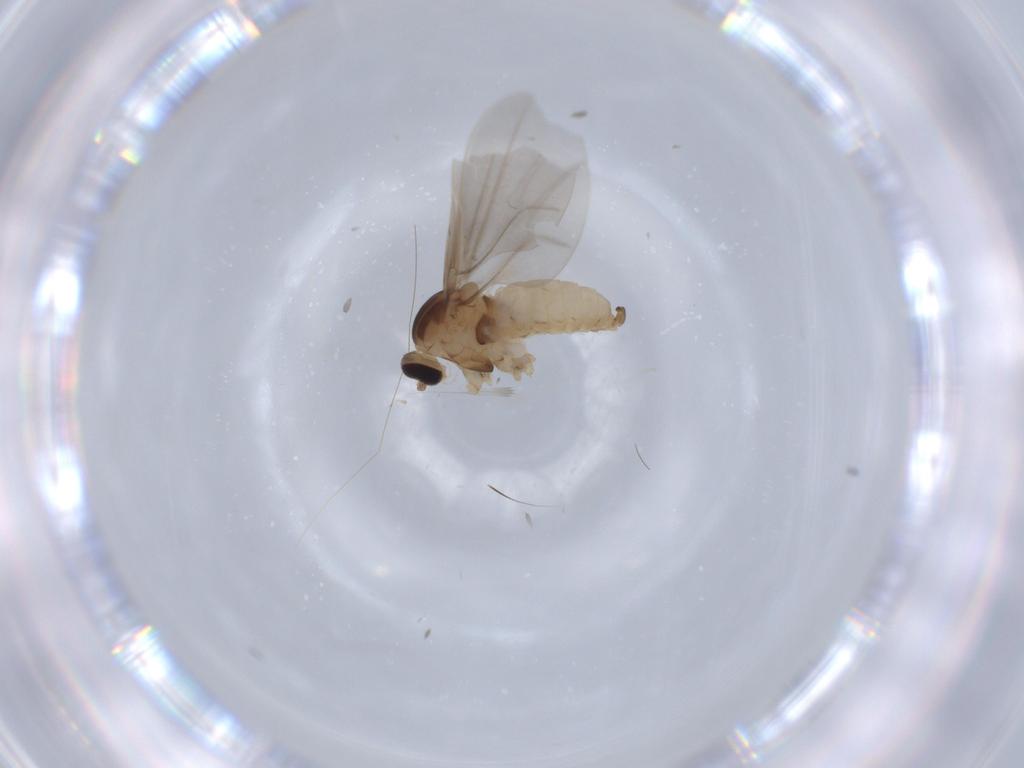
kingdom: Animalia
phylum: Arthropoda
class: Insecta
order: Diptera
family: Cecidomyiidae
